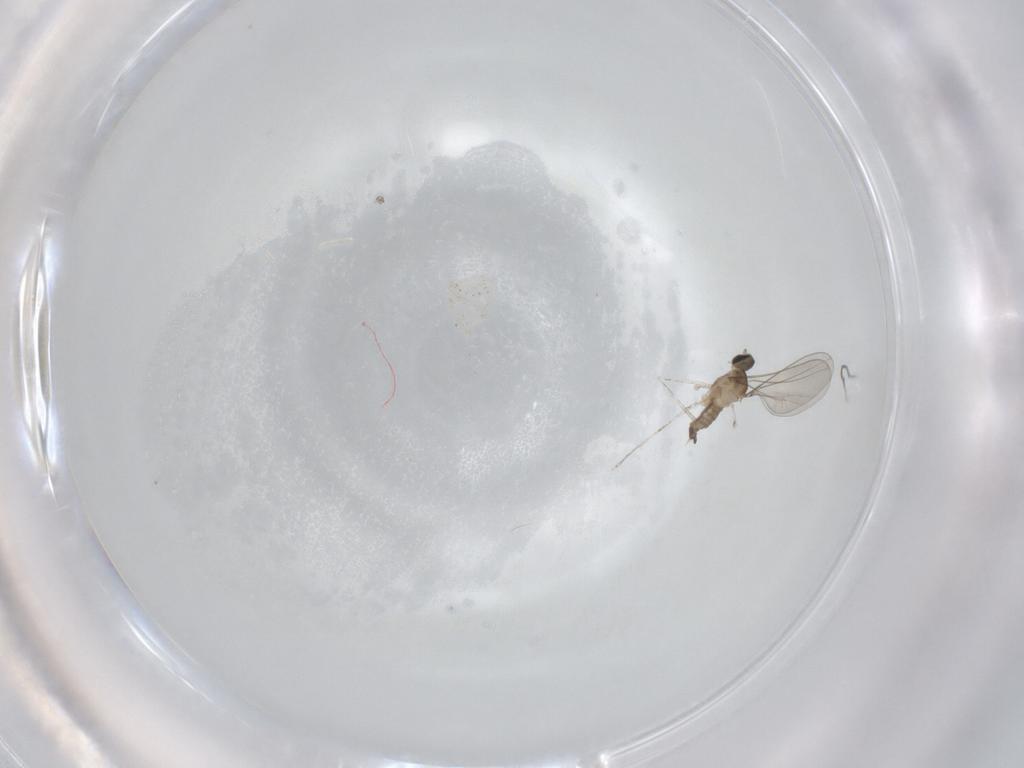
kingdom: Animalia
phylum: Arthropoda
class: Insecta
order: Diptera
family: Cecidomyiidae
